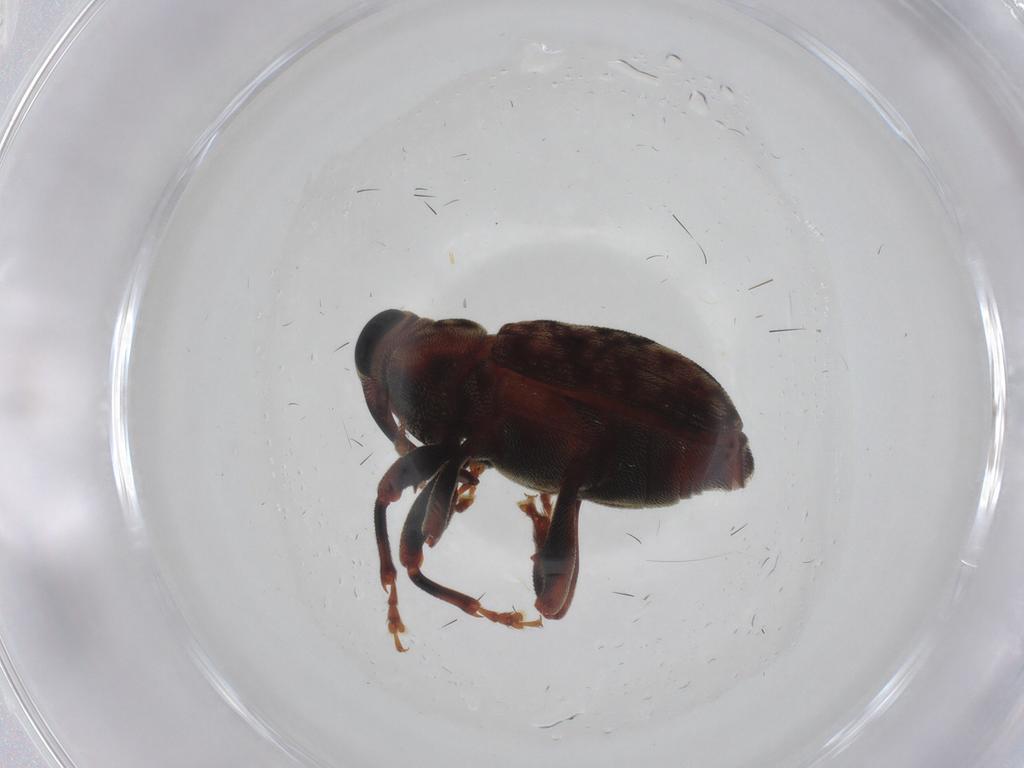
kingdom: Animalia
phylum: Arthropoda
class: Insecta
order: Coleoptera
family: Curculionidae
